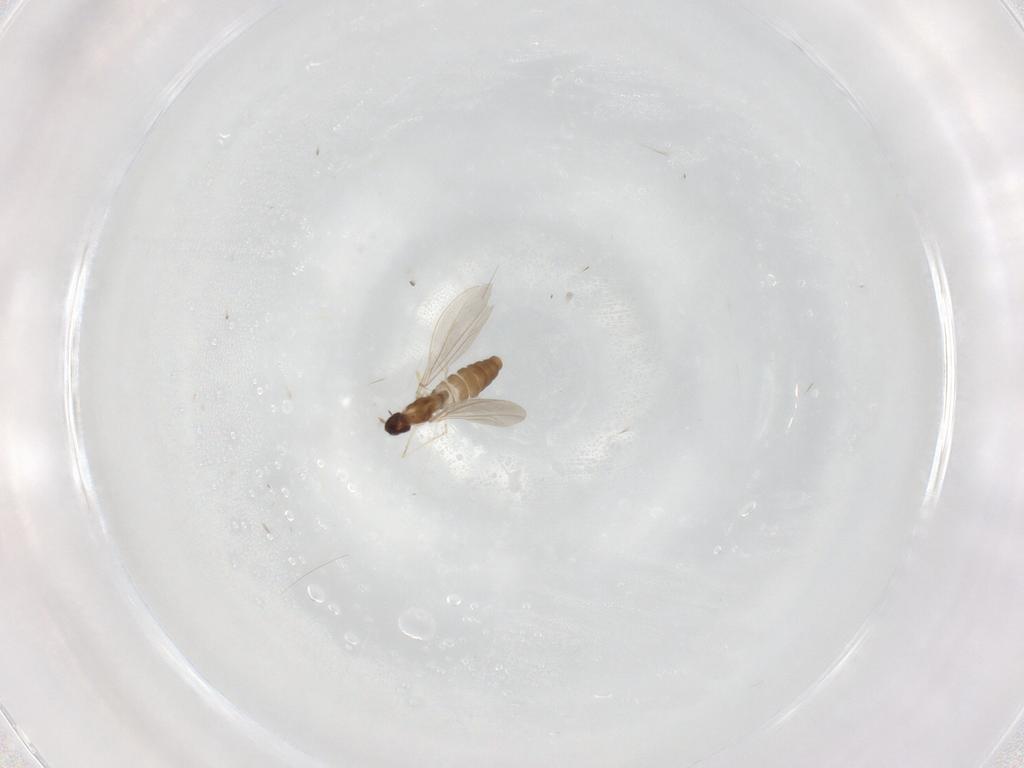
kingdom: Animalia
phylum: Arthropoda
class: Insecta
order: Diptera
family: Cecidomyiidae
